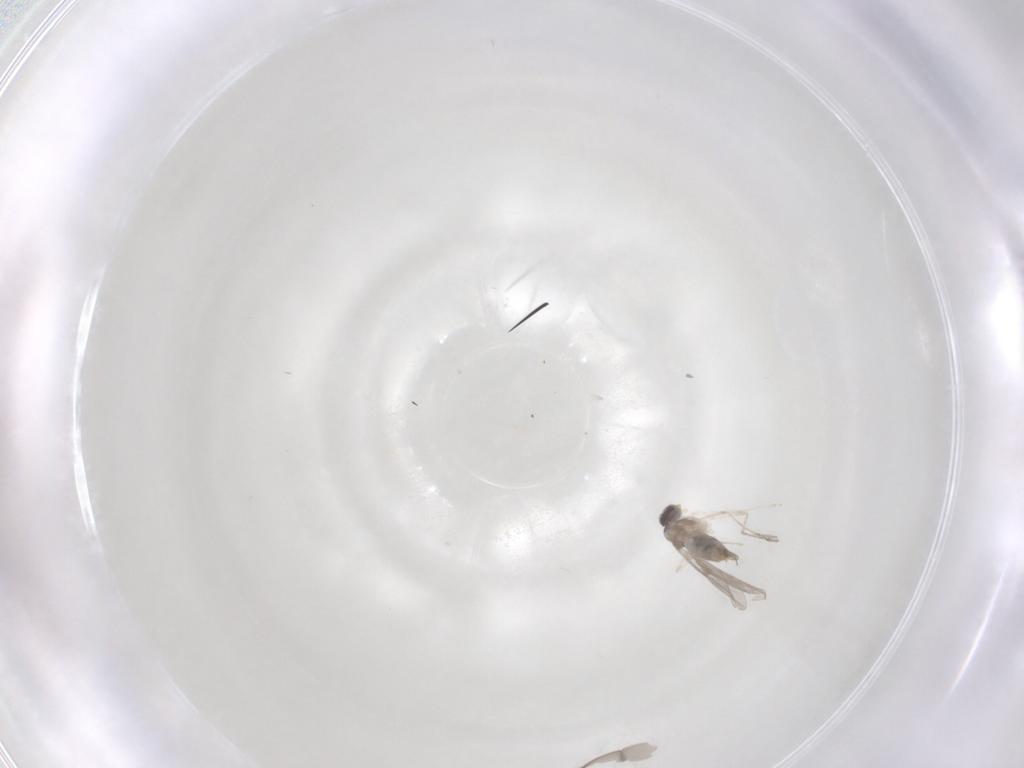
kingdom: Animalia
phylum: Arthropoda
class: Insecta
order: Diptera
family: Cecidomyiidae
